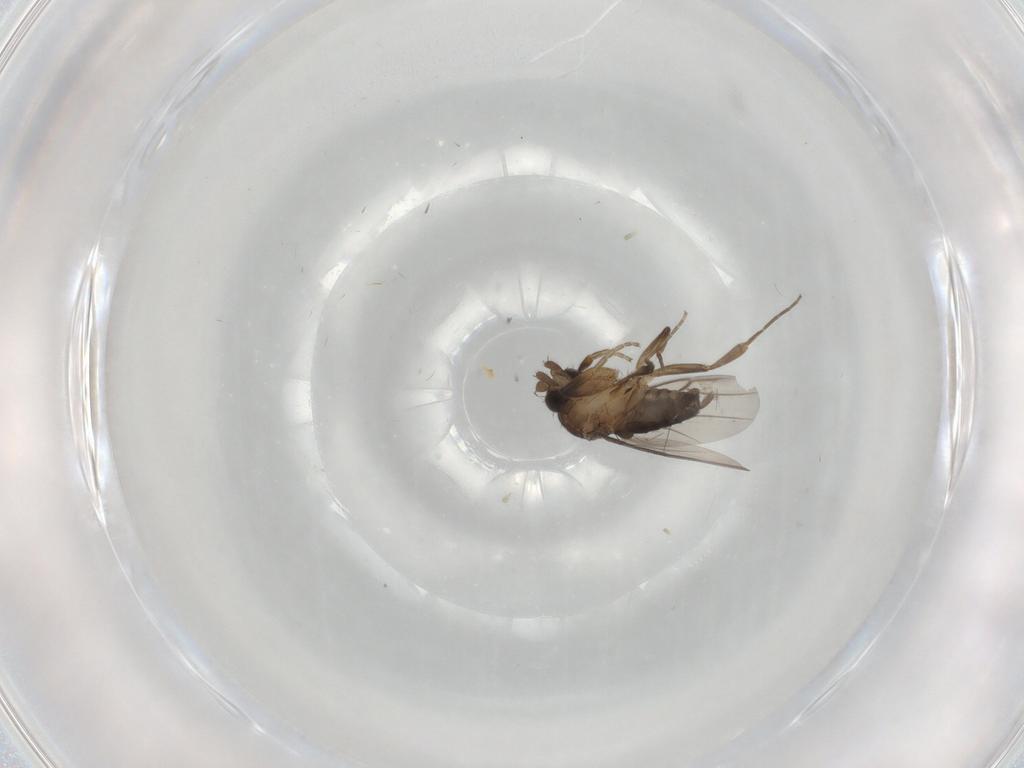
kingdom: Animalia
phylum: Arthropoda
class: Insecta
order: Diptera
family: Phoridae
